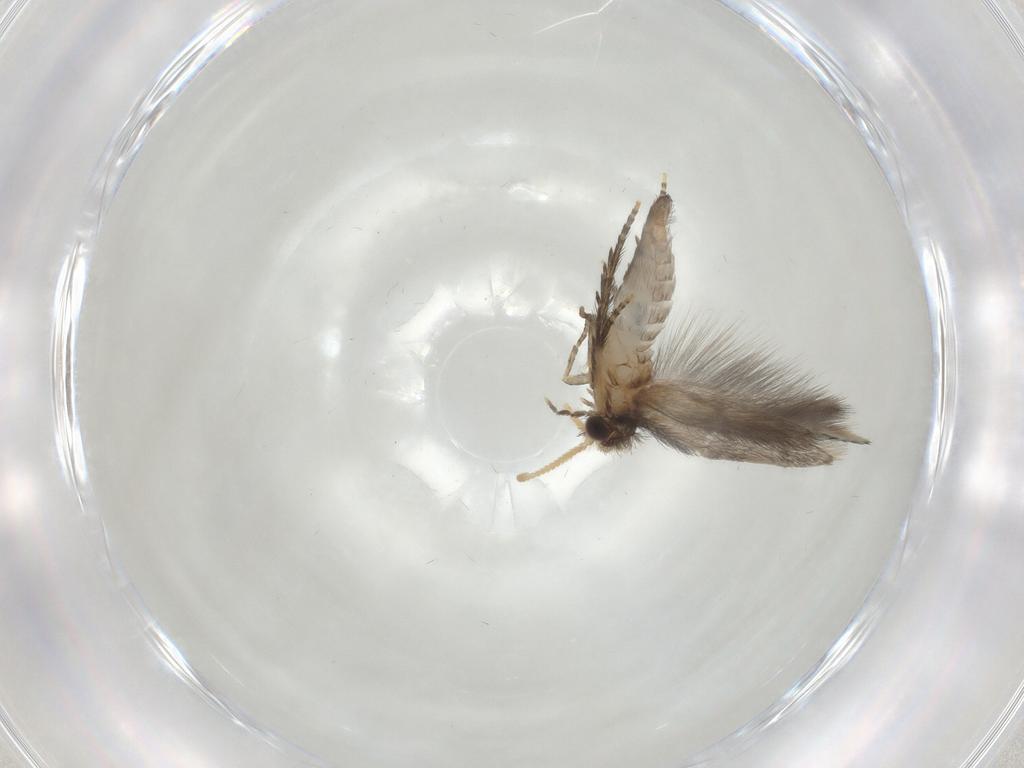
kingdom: Animalia
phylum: Arthropoda
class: Insecta
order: Trichoptera
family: Hydroptilidae
